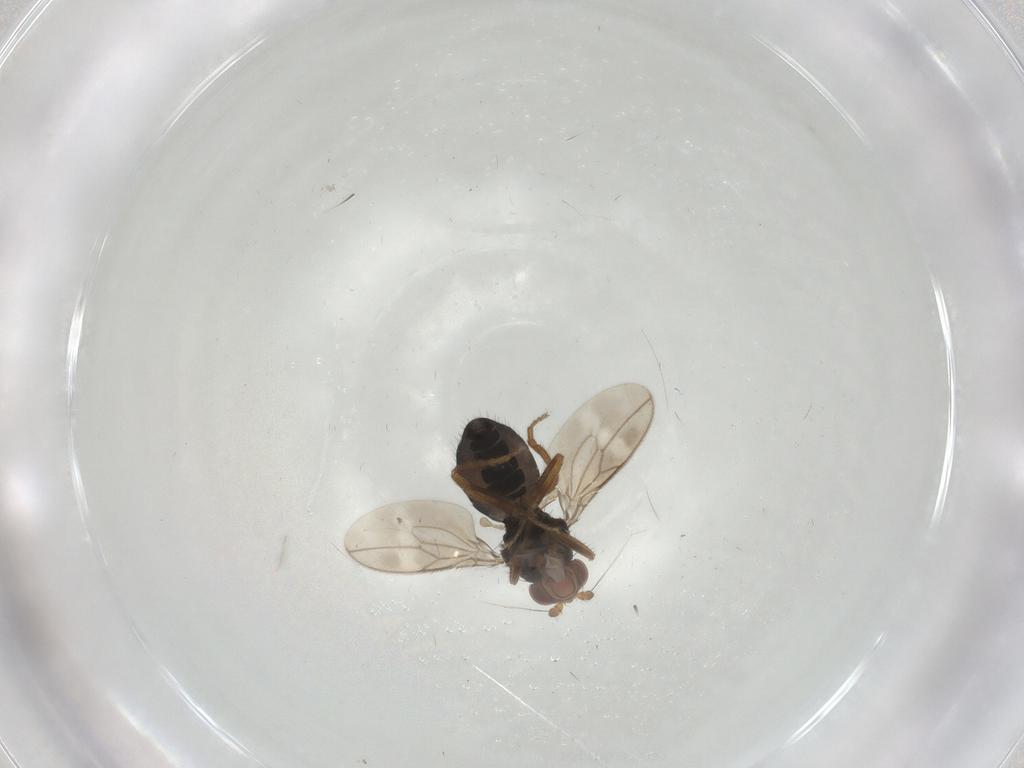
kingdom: Animalia
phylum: Arthropoda
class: Insecta
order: Diptera
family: Sphaeroceridae
